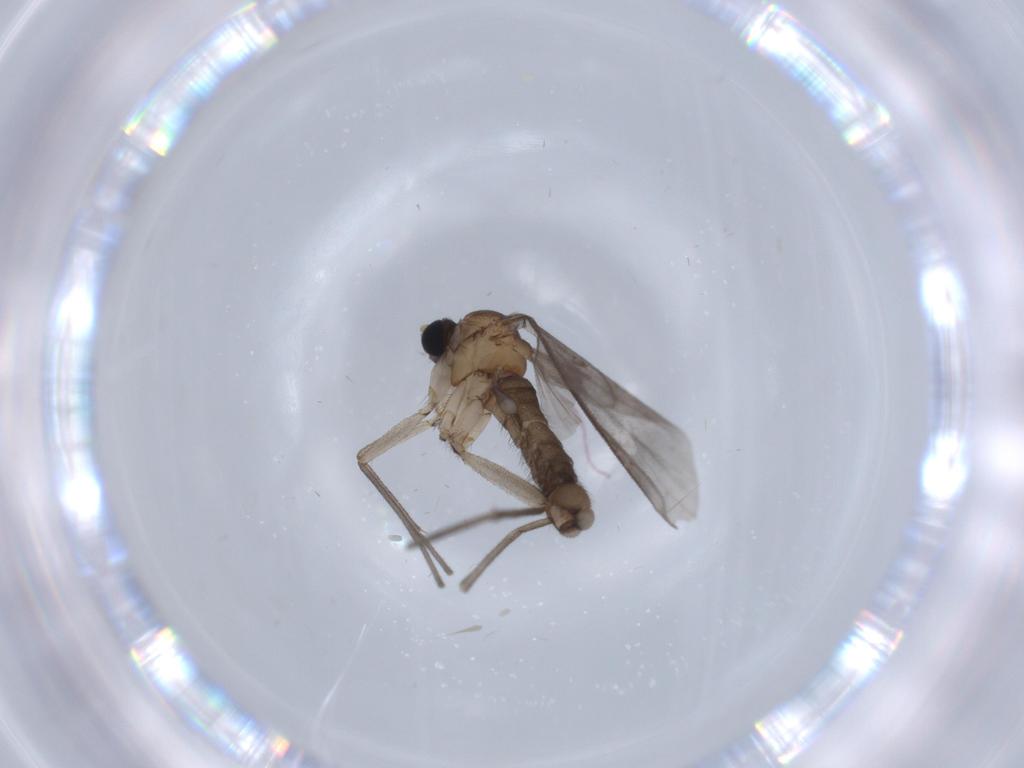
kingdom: Animalia
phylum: Arthropoda
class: Insecta
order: Diptera
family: Sciaridae
